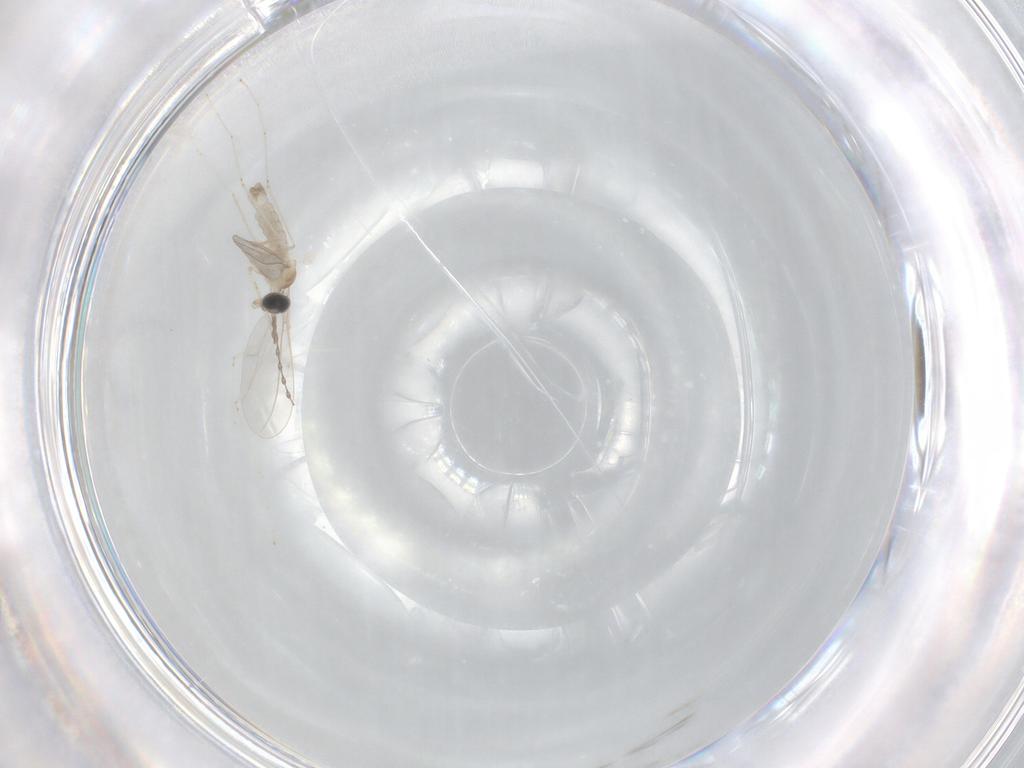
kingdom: Animalia
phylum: Arthropoda
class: Insecta
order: Diptera
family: Cecidomyiidae
